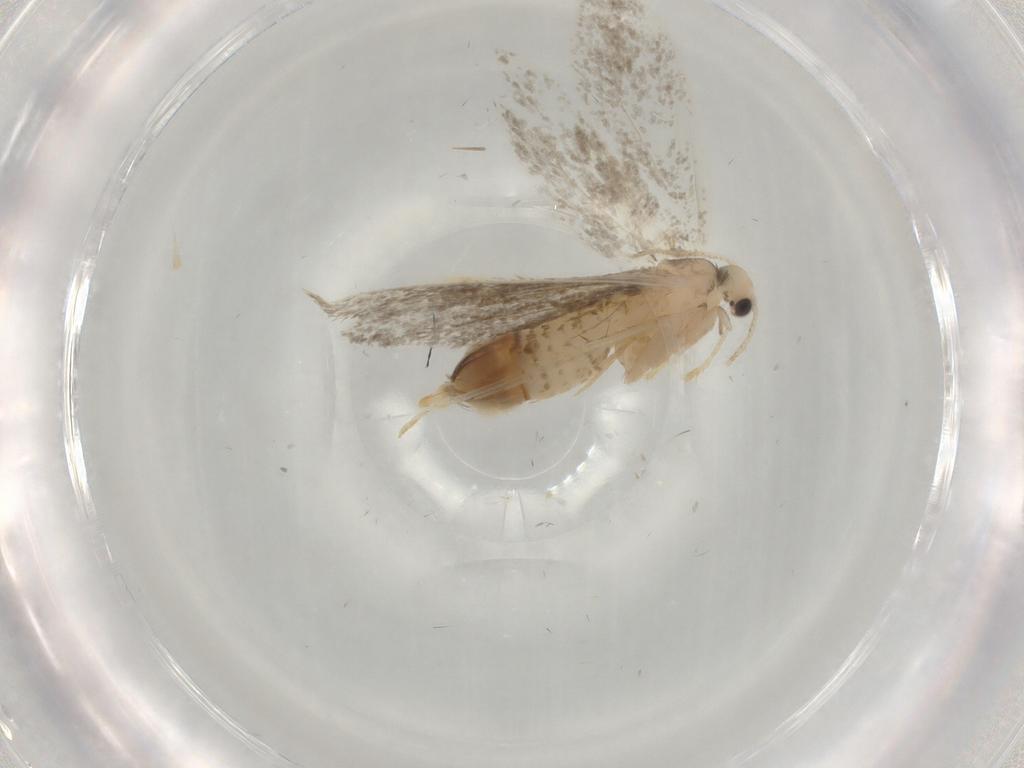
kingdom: Animalia
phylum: Arthropoda
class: Insecta
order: Lepidoptera
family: Psychidae
